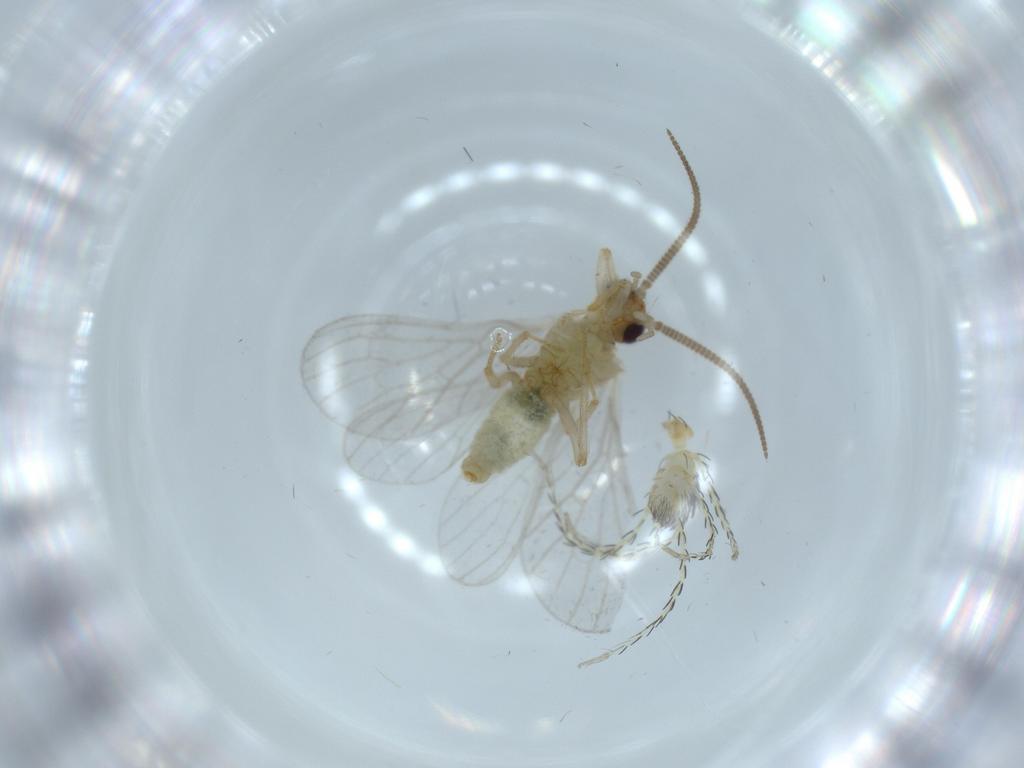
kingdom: Animalia
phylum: Arthropoda
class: Arachnida
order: Trombidiformes
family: Erythraeidae
